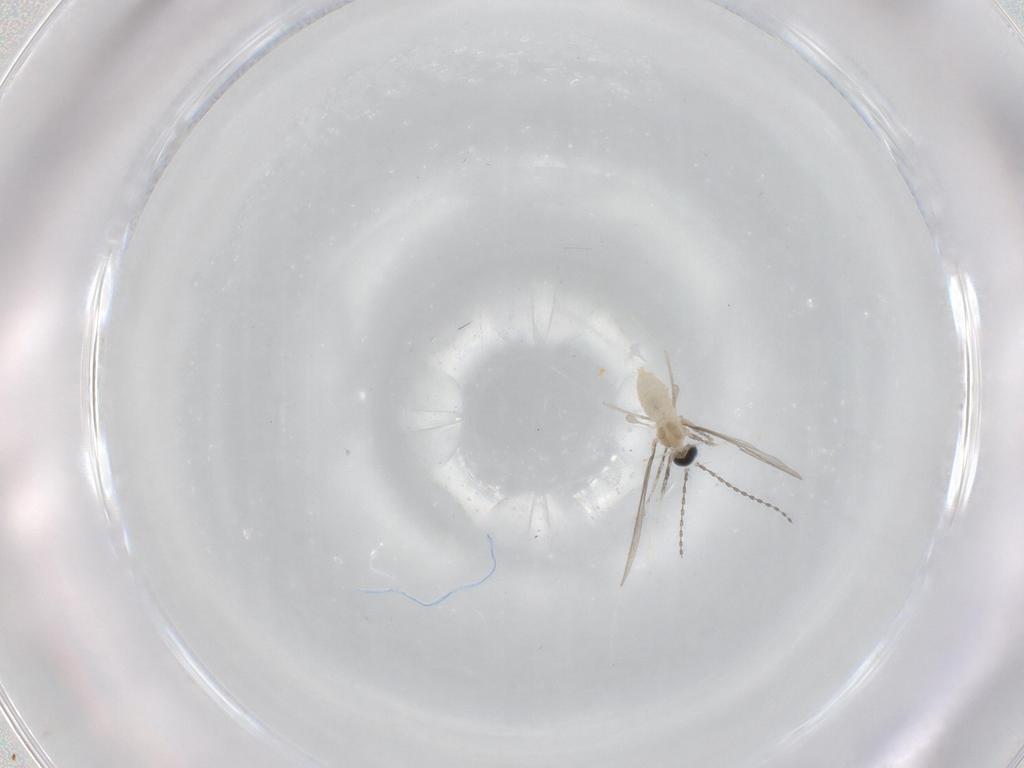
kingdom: Animalia
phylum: Arthropoda
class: Insecta
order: Diptera
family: Cecidomyiidae
